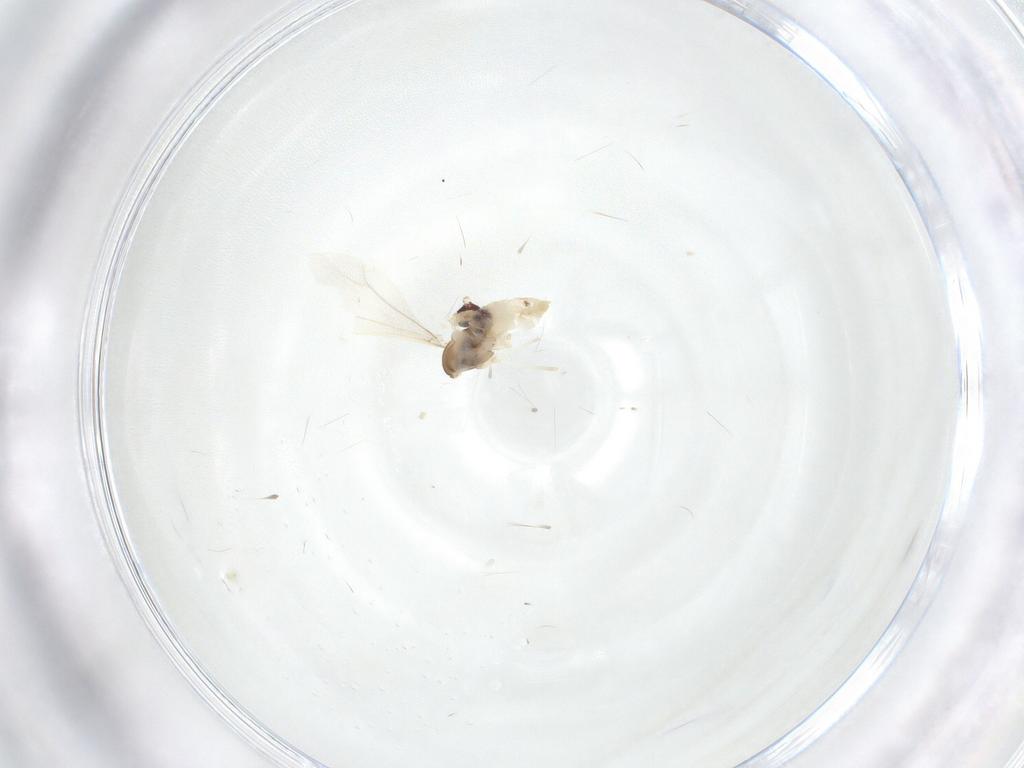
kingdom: Animalia
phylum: Arthropoda
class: Insecta
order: Diptera
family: Cecidomyiidae
